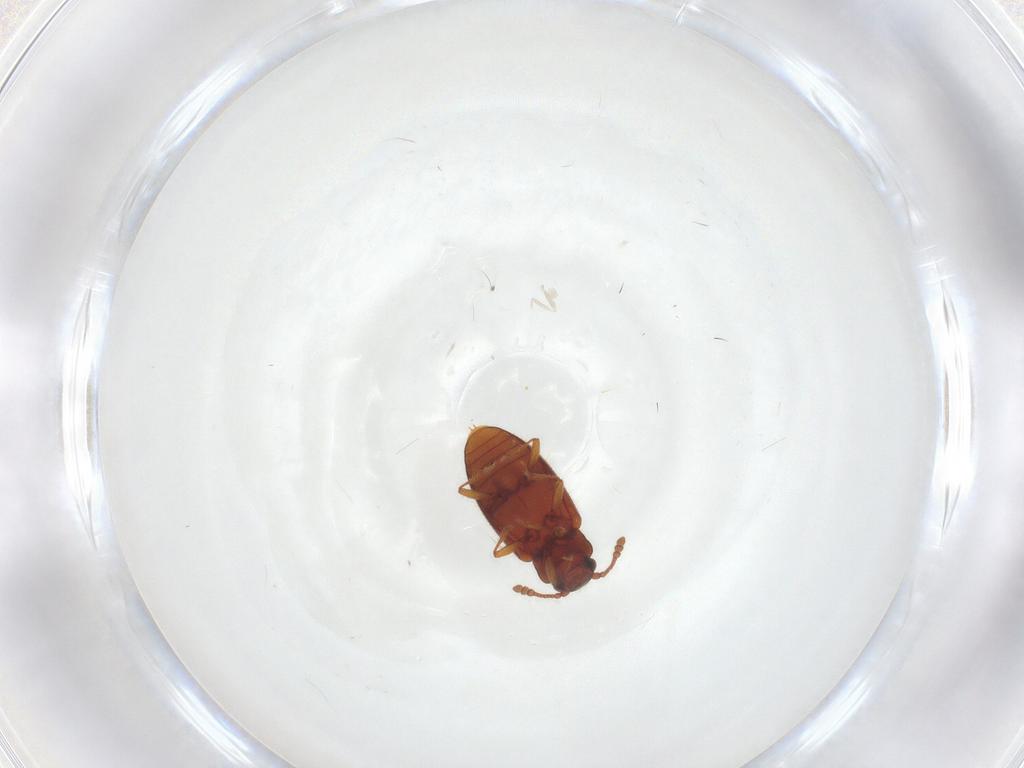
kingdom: Animalia
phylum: Arthropoda
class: Insecta
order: Coleoptera
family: Cryptophagidae
